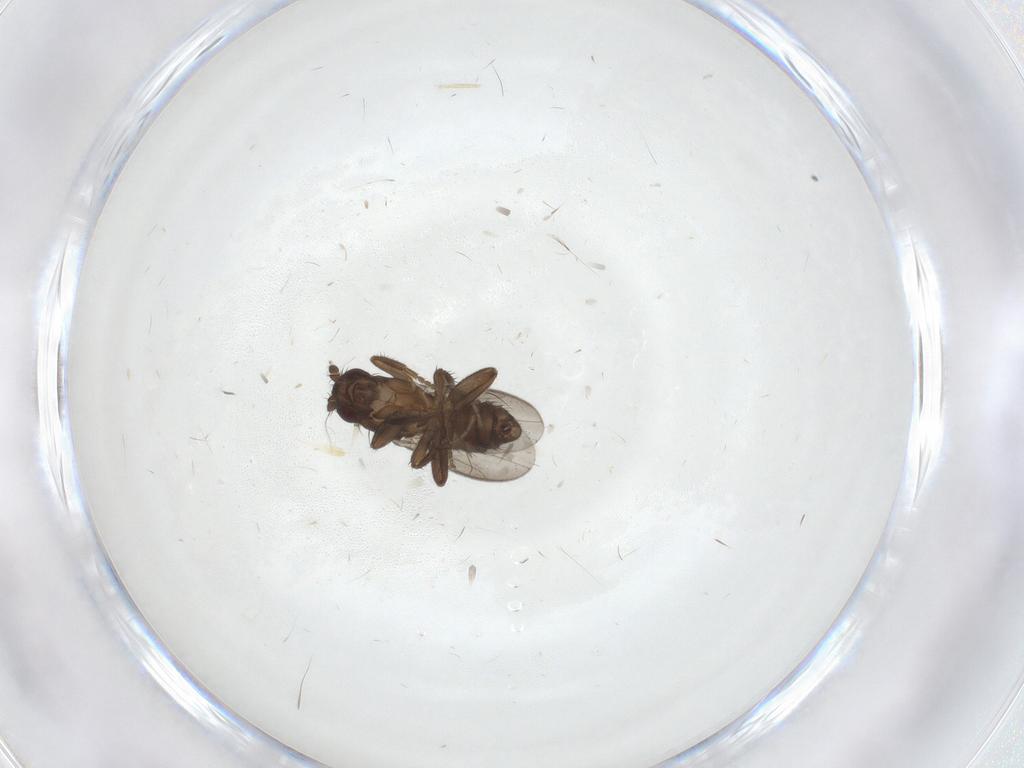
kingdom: Animalia
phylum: Arthropoda
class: Insecta
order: Diptera
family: Sphaeroceridae
